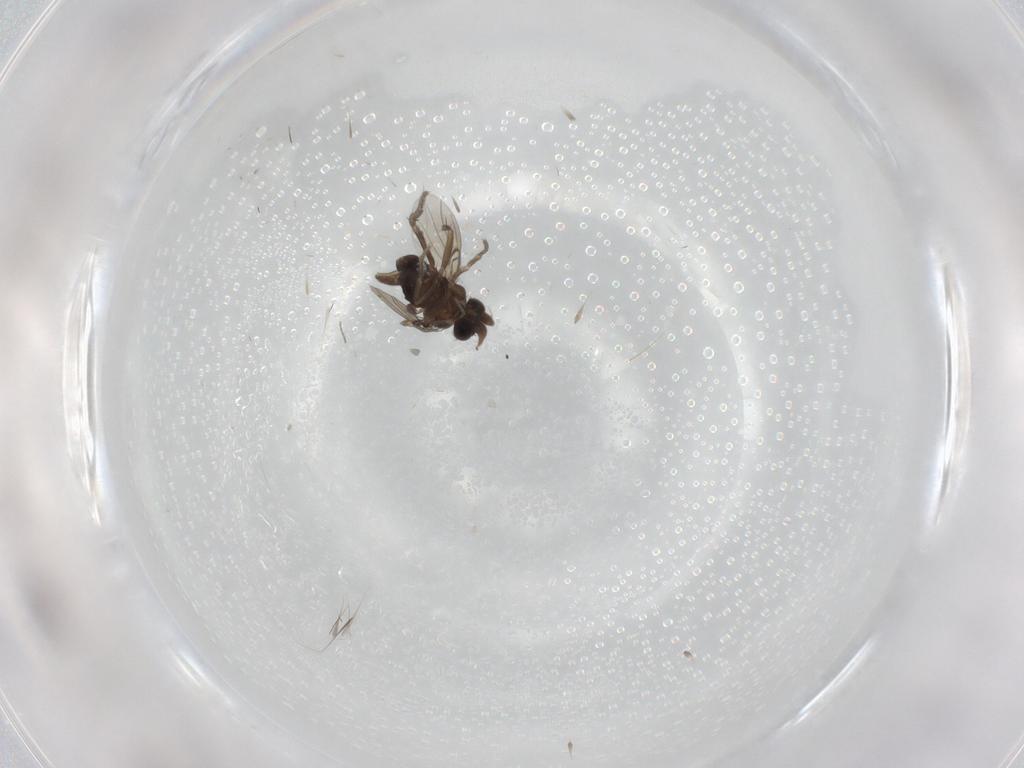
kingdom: Animalia
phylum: Arthropoda
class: Insecta
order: Diptera
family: Phoridae
